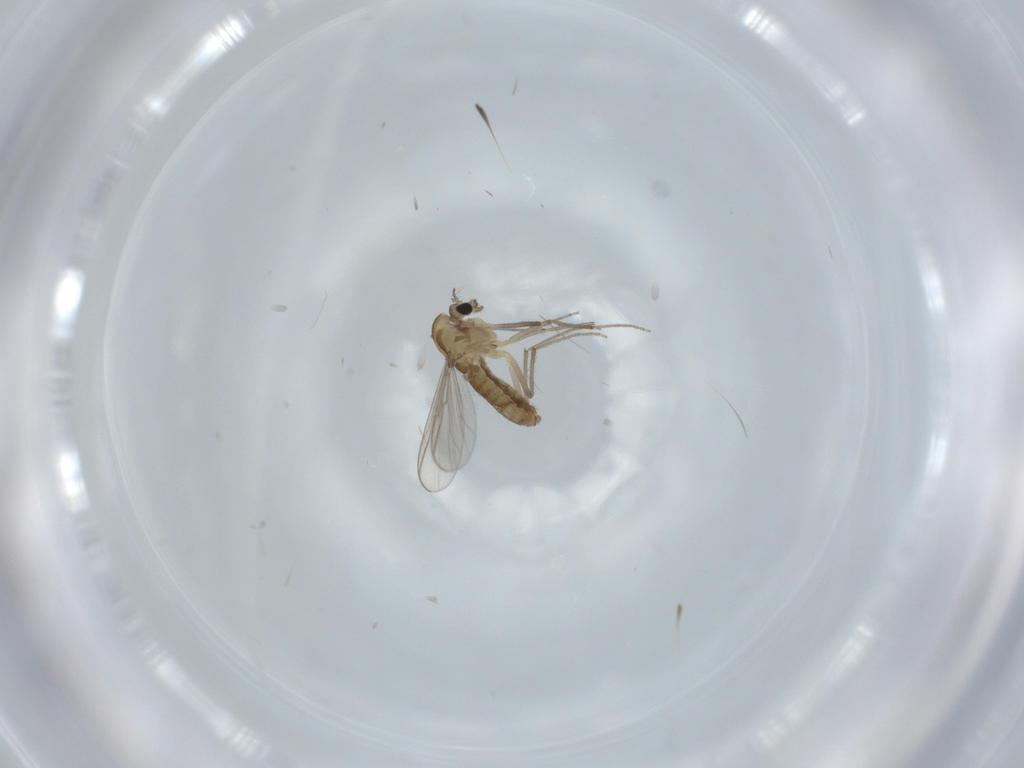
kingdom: Animalia
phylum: Arthropoda
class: Insecta
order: Diptera
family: Chironomidae
